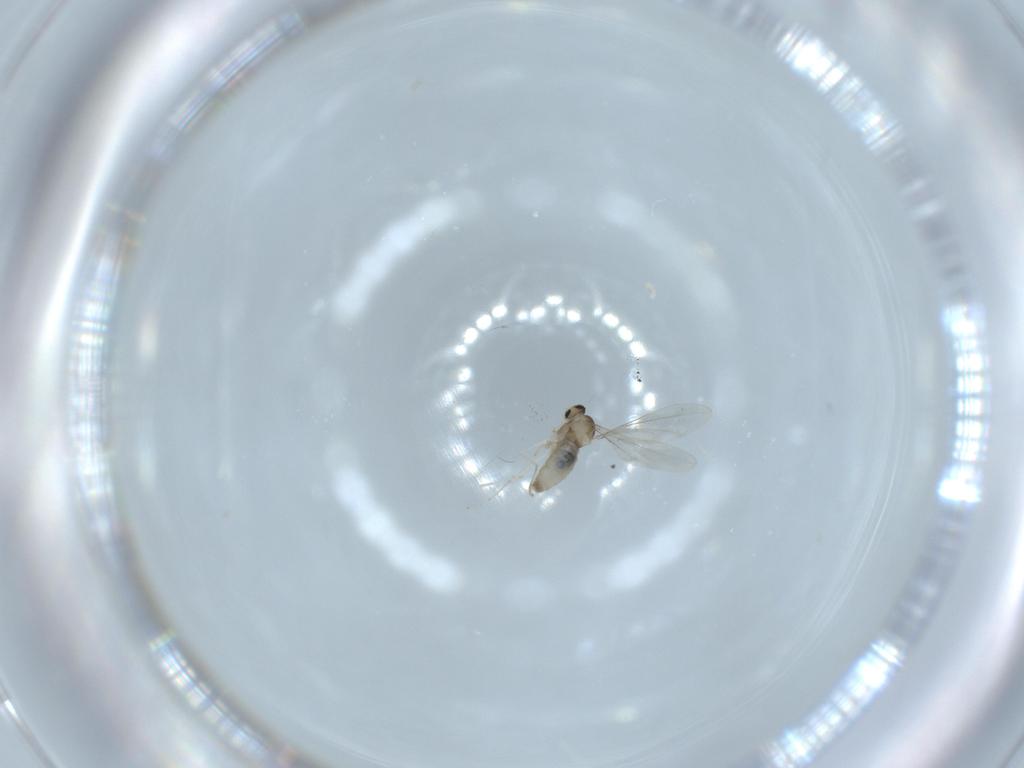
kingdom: Animalia
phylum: Arthropoda
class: Insecta
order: Diptera
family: Cecidomyiidae
